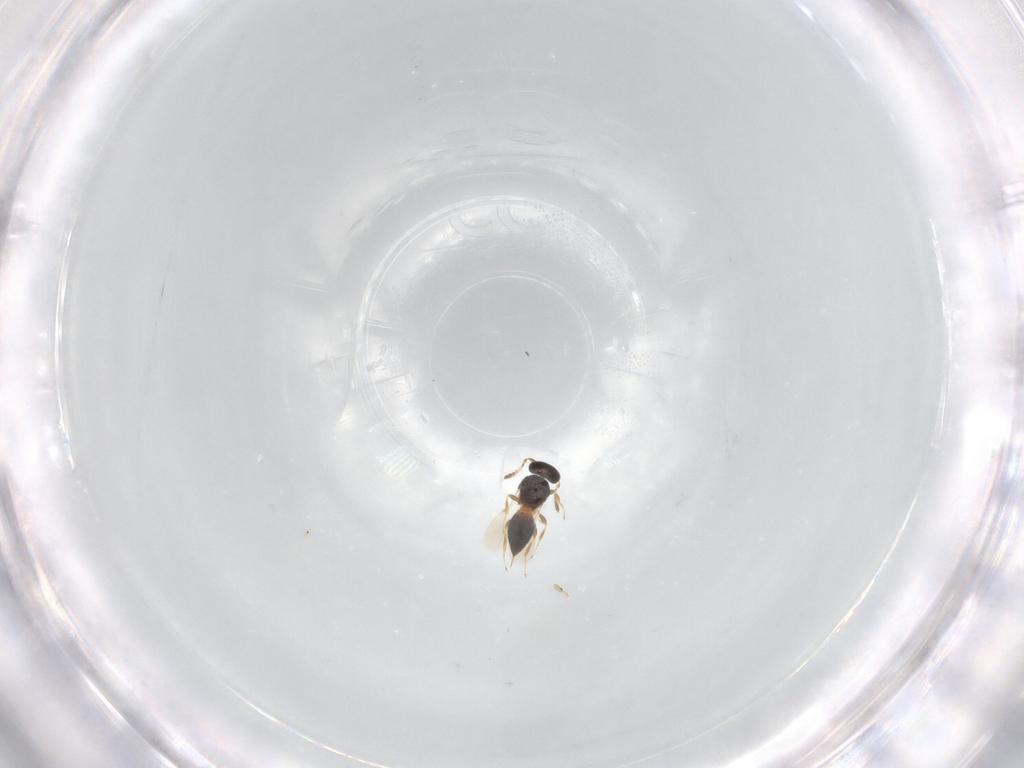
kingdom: Animalia
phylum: Arthropoda
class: Insecta
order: Hymenoptera
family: Platygastridae
